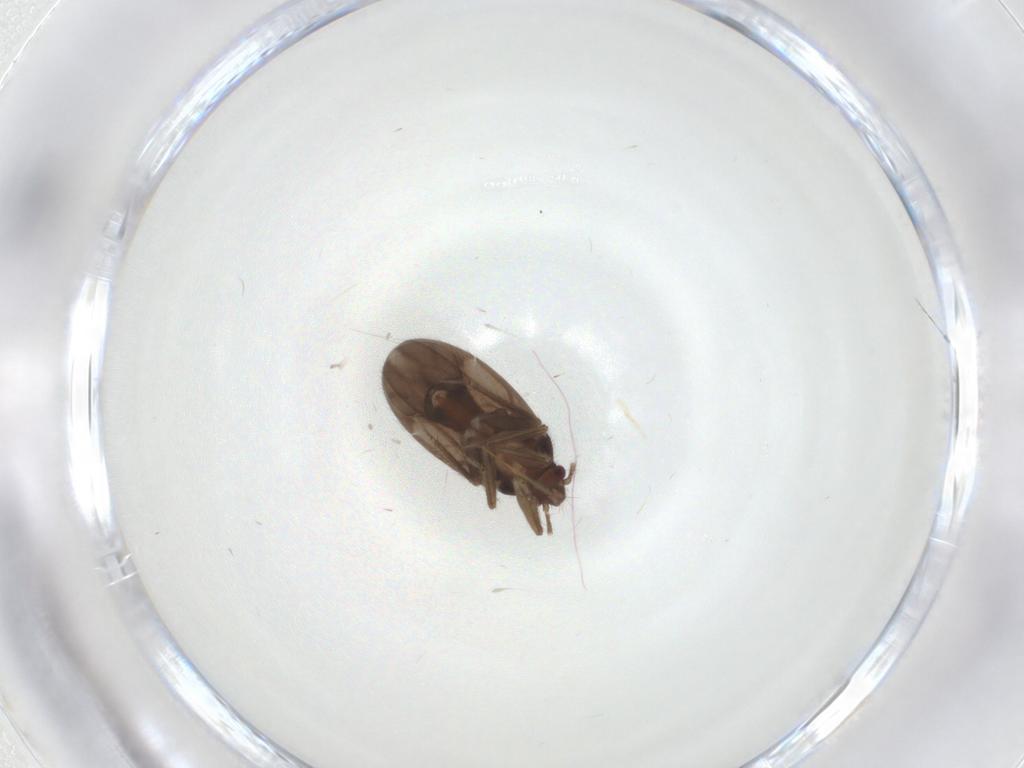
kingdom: Animalia
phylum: Arthropoda
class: Insecta
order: Hemiptera
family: Ceratocombidae
